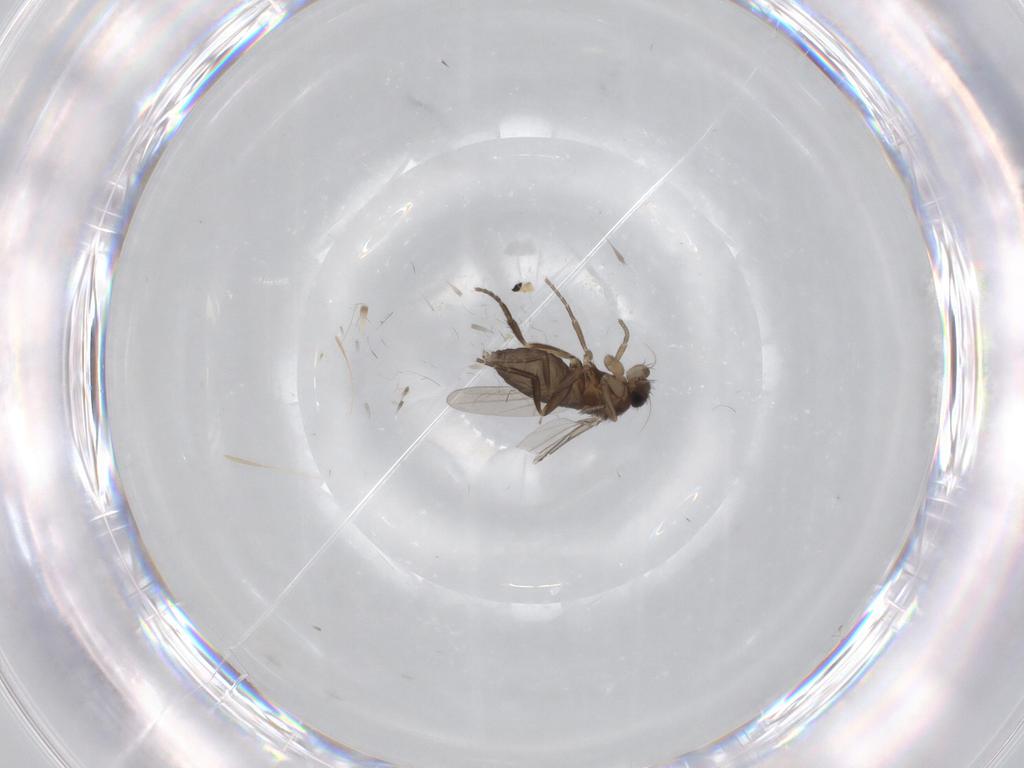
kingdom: Animalia
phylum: Arthropoda
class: Insecta
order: Diptera
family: Phoridae
